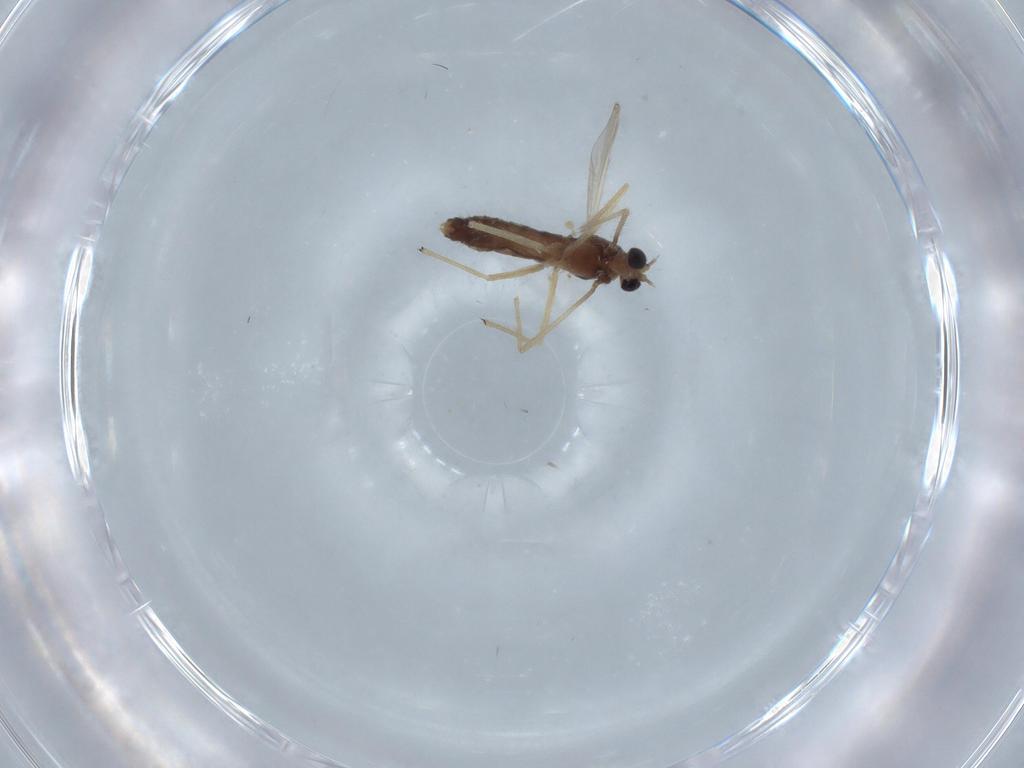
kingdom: Animalia
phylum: Arthropoda
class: Insecta
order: Diptera
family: Chironomidae
